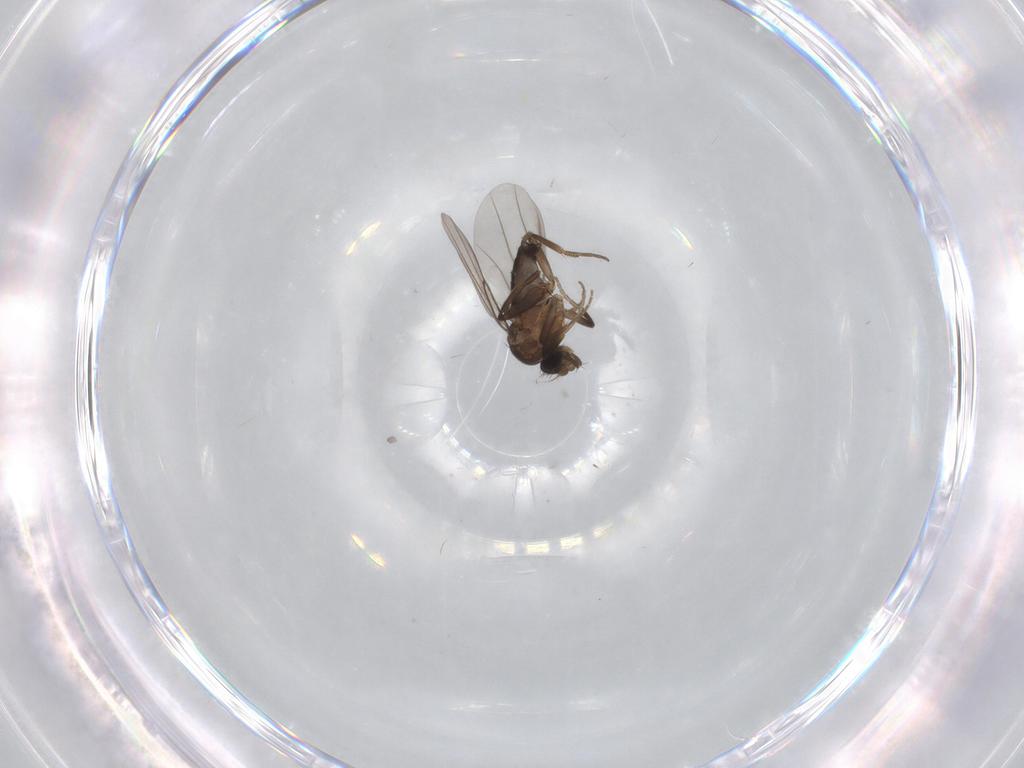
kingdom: Animalia
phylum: Arthropoda
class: Insecta
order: Diptera
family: Phoridae
